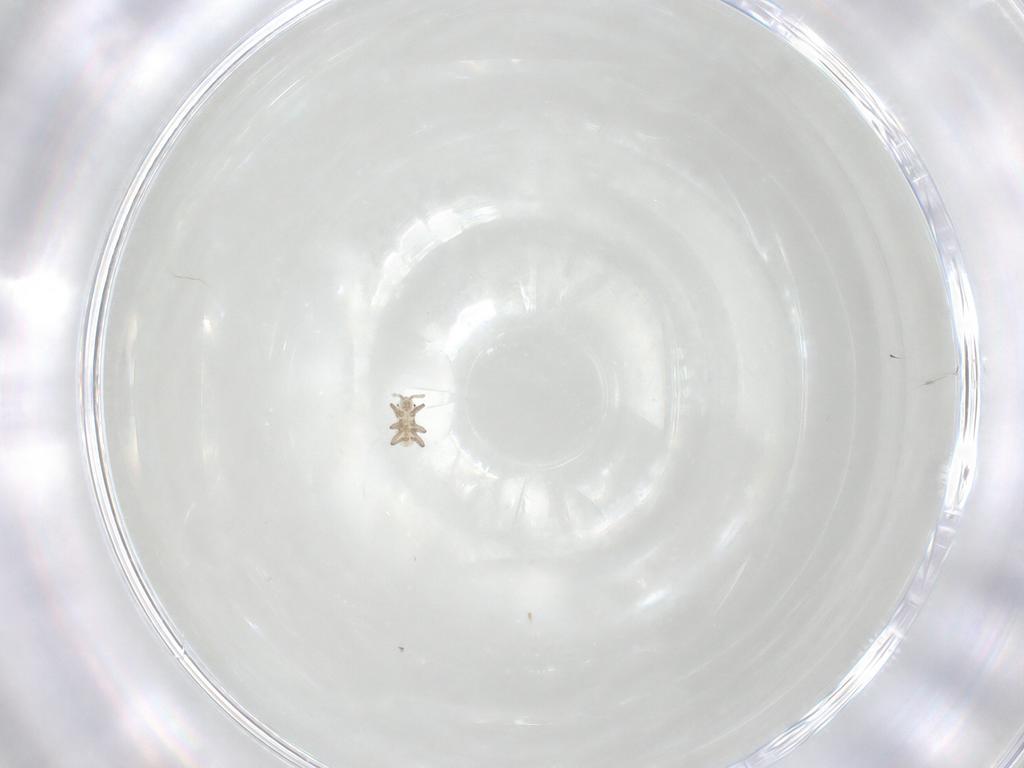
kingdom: Animalia
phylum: Arthropoda
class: Insecta
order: Hemiptera
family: Aphididae
